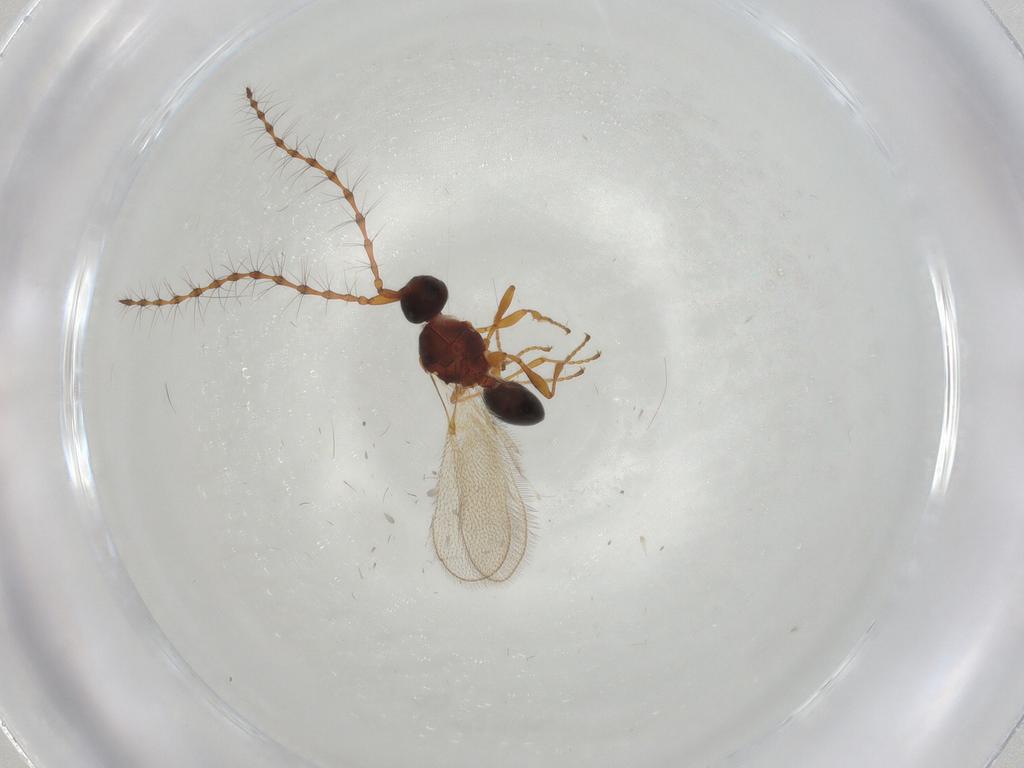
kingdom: Animalia
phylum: Arthropoda
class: Insecta
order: Hymenoptera
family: Diapriidae
